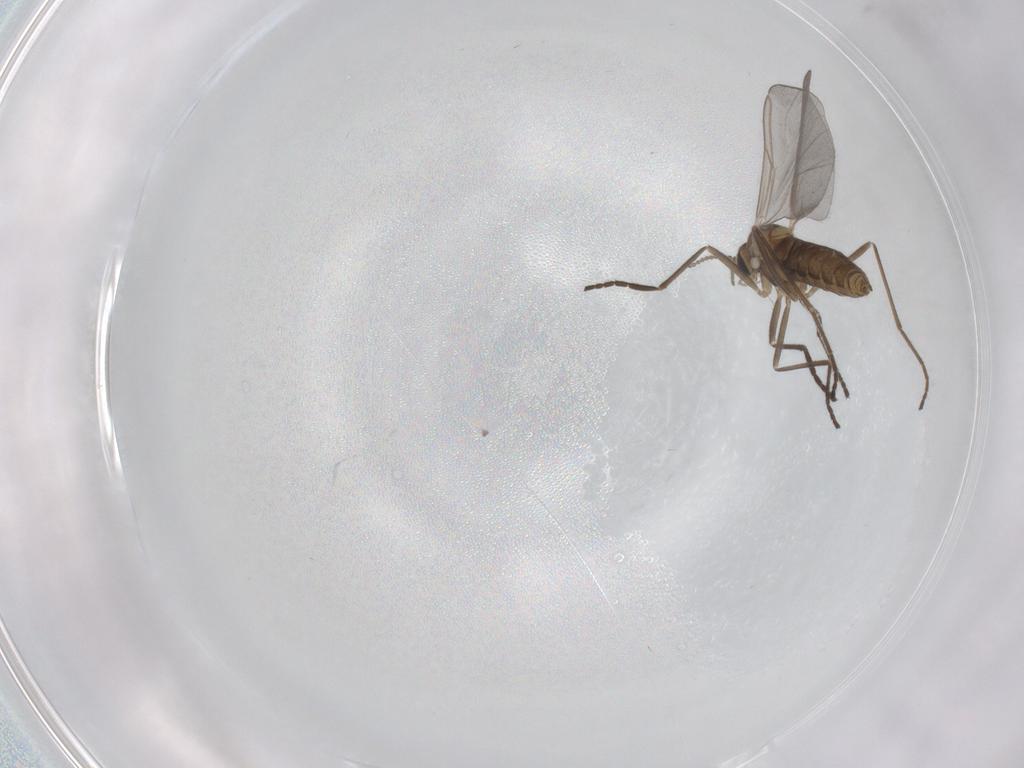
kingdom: Animalia
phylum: Arthropoda
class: Insecta
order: Diptera
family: Cecidomyiidae
